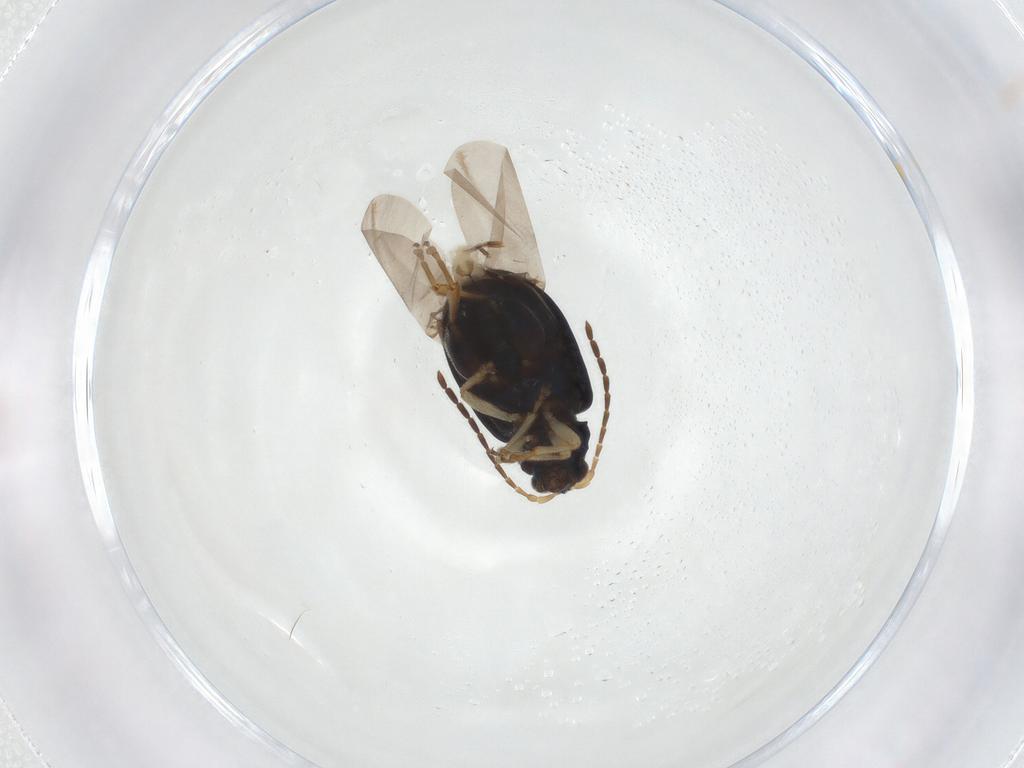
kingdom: Animalia
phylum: Arthropoda
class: Insecta
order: Coleoptera
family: Chrysomelidae
